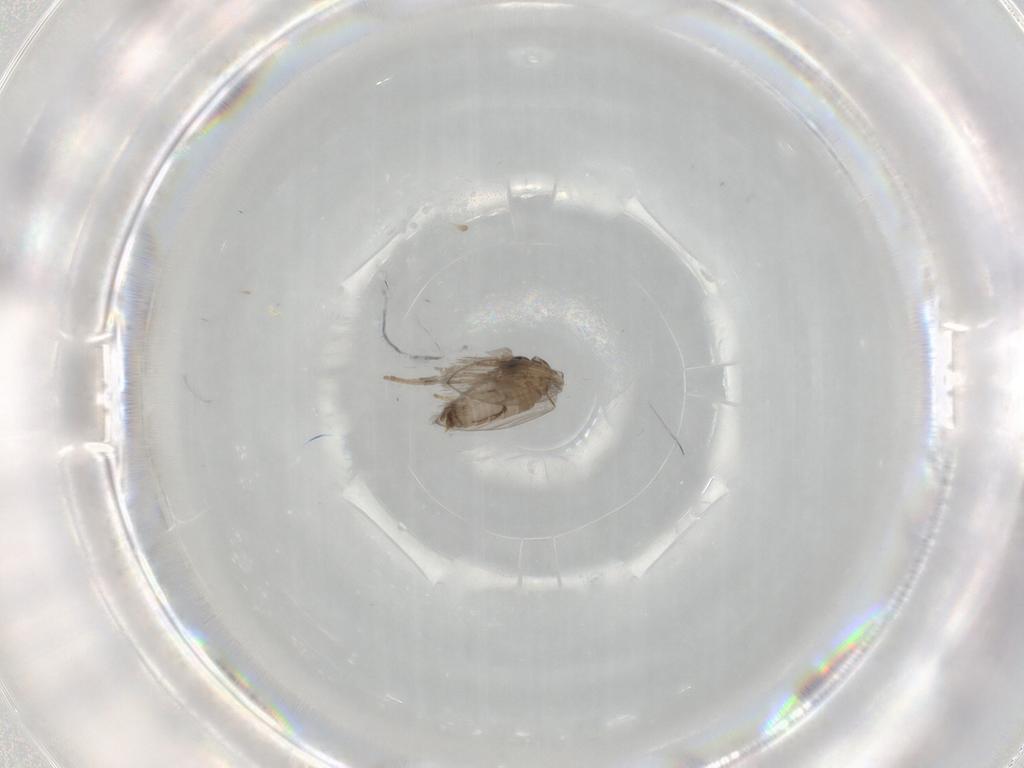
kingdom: Animalia
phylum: Arthropoda
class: Insecta
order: Diptera
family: Psychodidae
